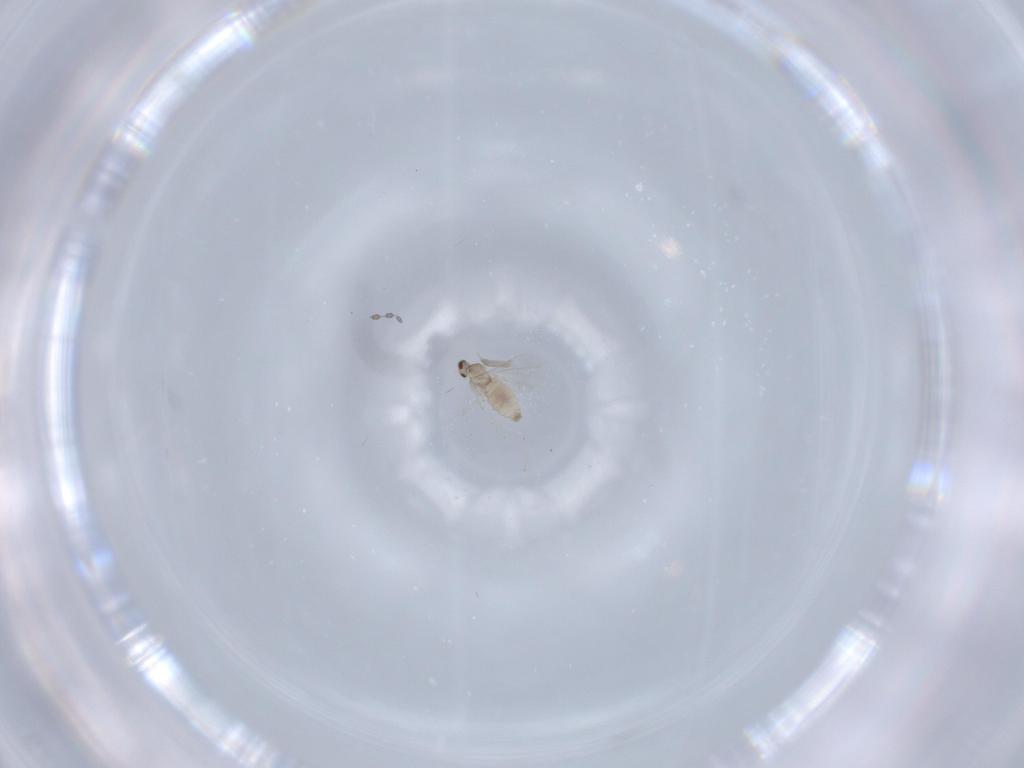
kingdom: Animalia
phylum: Arthropoda
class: Insecta
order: Diptera
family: Cecidomyiidae
